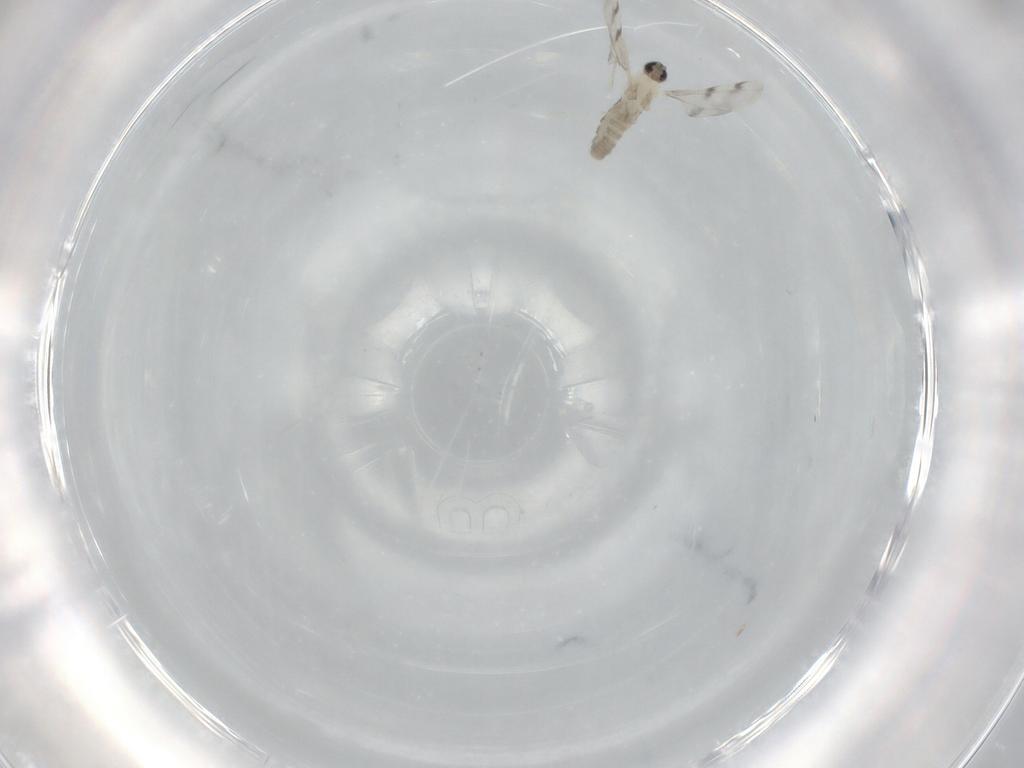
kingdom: Animalia
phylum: Arthropoda
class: Insecta
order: Diptera
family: Cecidomyiidae
